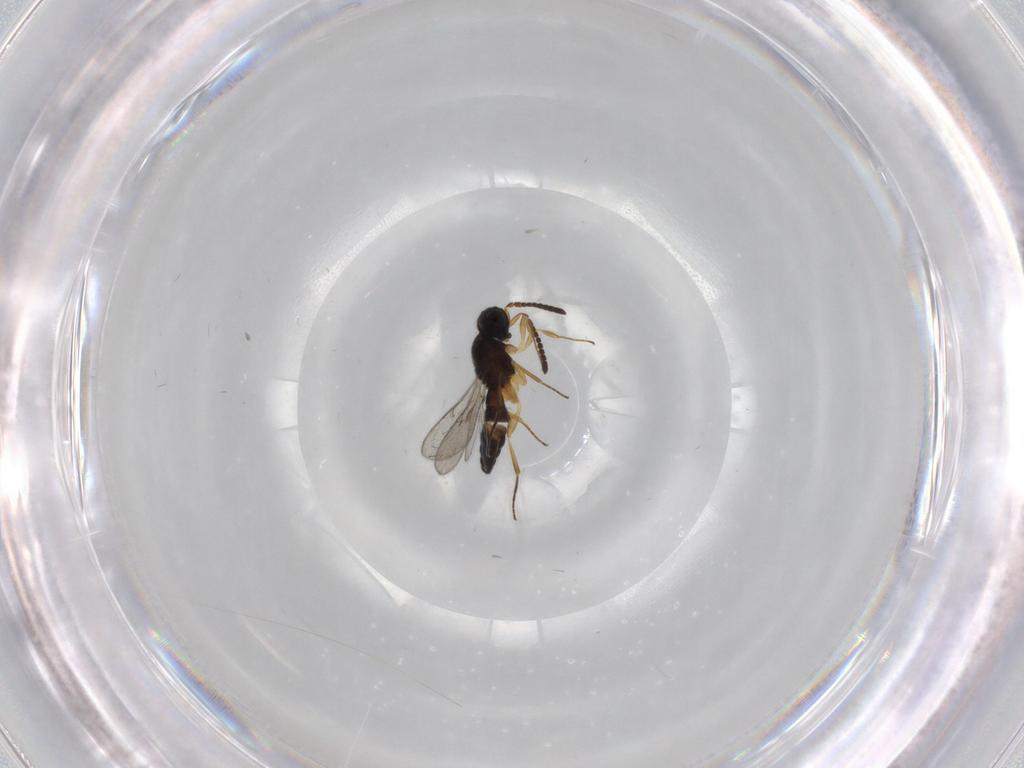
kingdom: Animalia
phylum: Arthropoda
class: Insecta
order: Hymenoptera
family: Scelionidae
